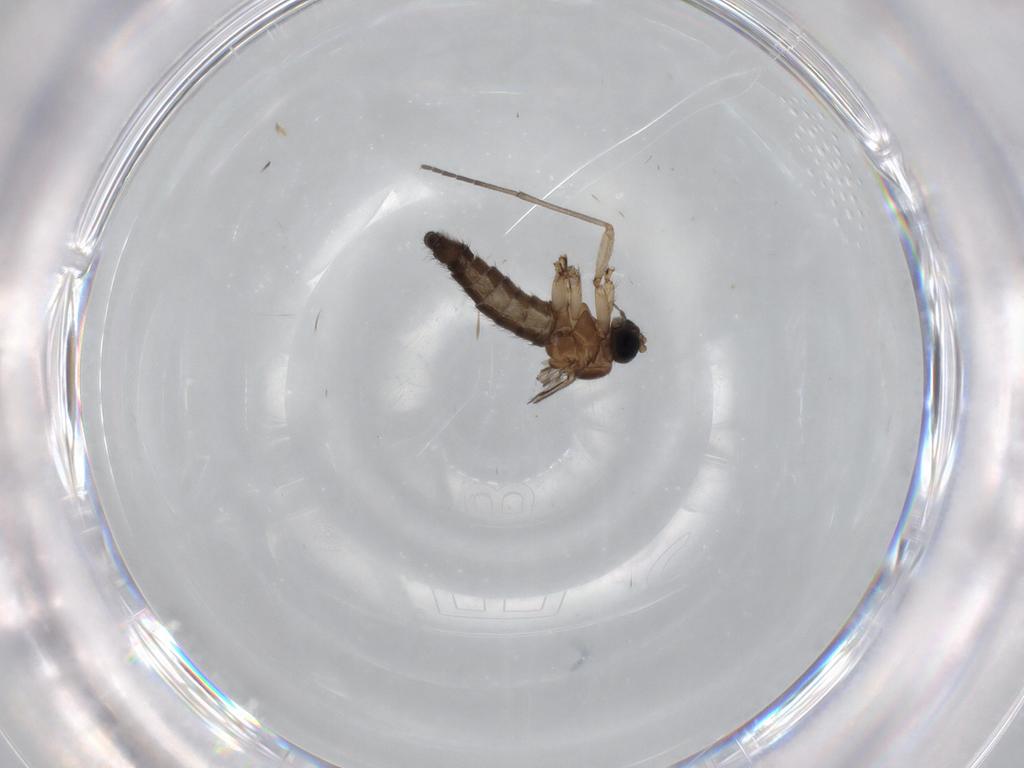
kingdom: Animalia
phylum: Arthropoda
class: Insecta
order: Diptera
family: Sciaridae
